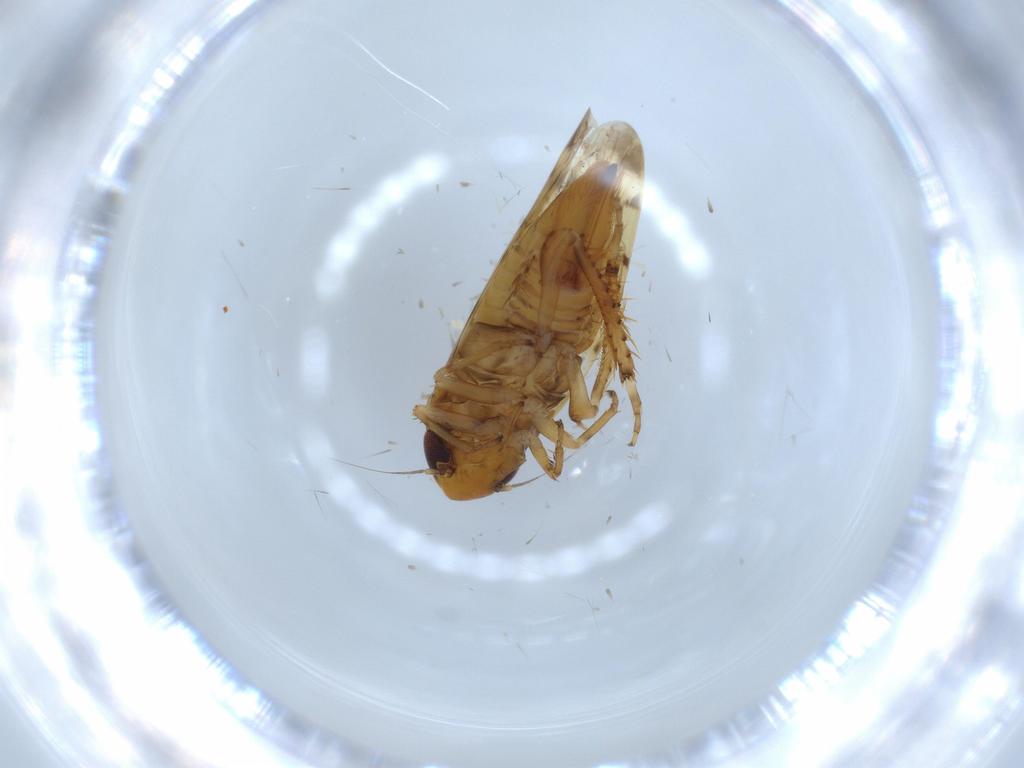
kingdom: Animalia
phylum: Arthropoda
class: Insecta
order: Hemiptera
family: Cicadellidae
